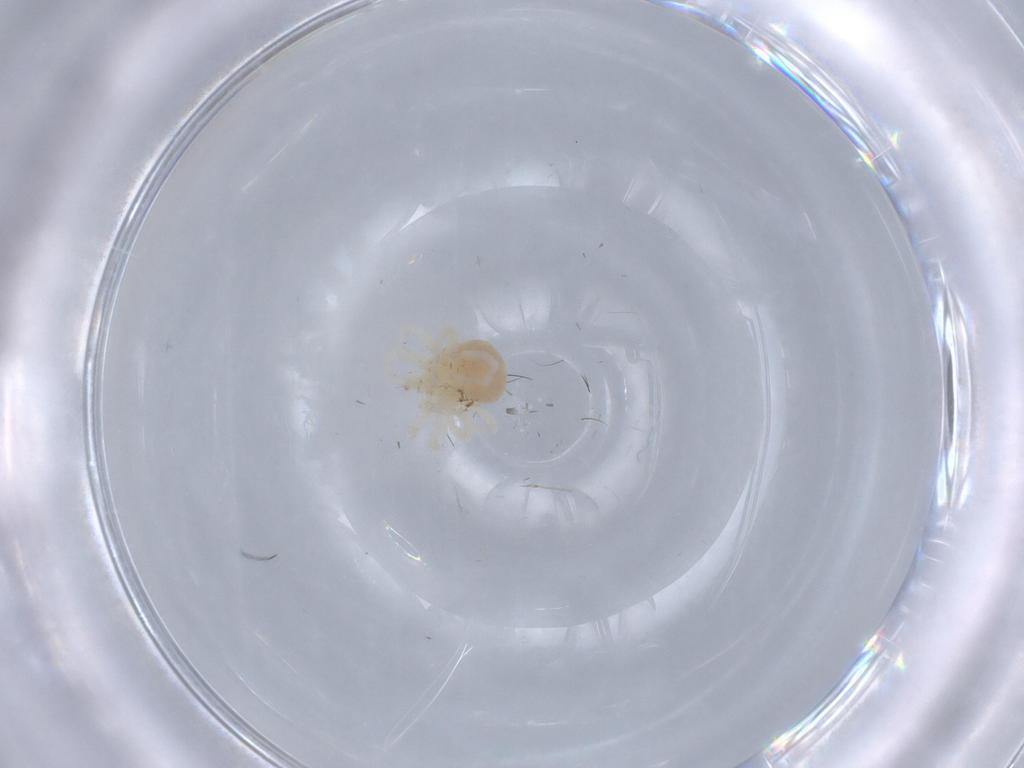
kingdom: Animalia
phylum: Arthropoda
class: Arachnida
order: Trombidiformes
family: Anystidae
